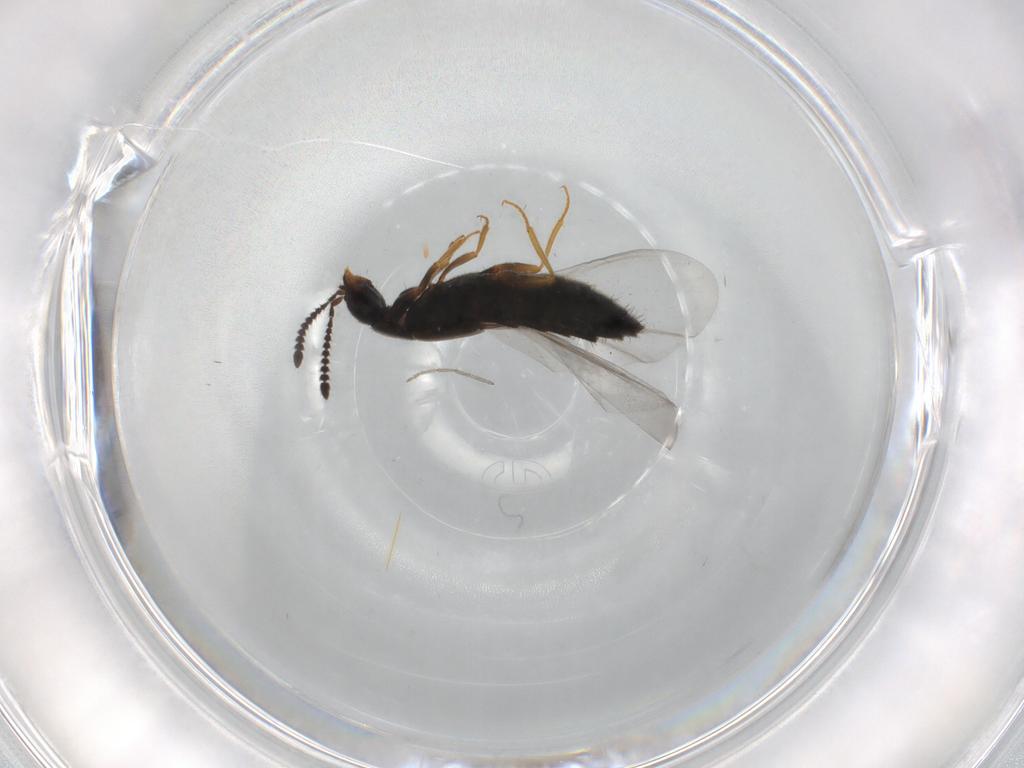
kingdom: Animalia
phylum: Arthropoda
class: Insecta
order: Coleoptera
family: Staphylinidae
